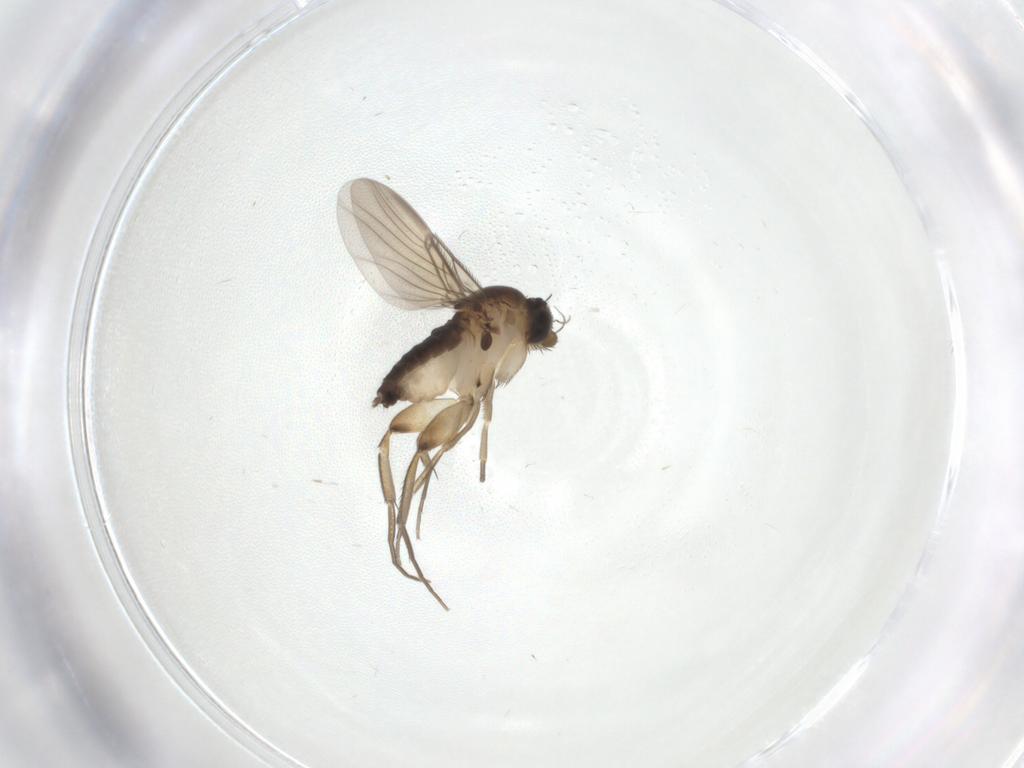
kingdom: Animalia
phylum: Arthropoda
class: Insecta
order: Diptera
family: Psychodidae
